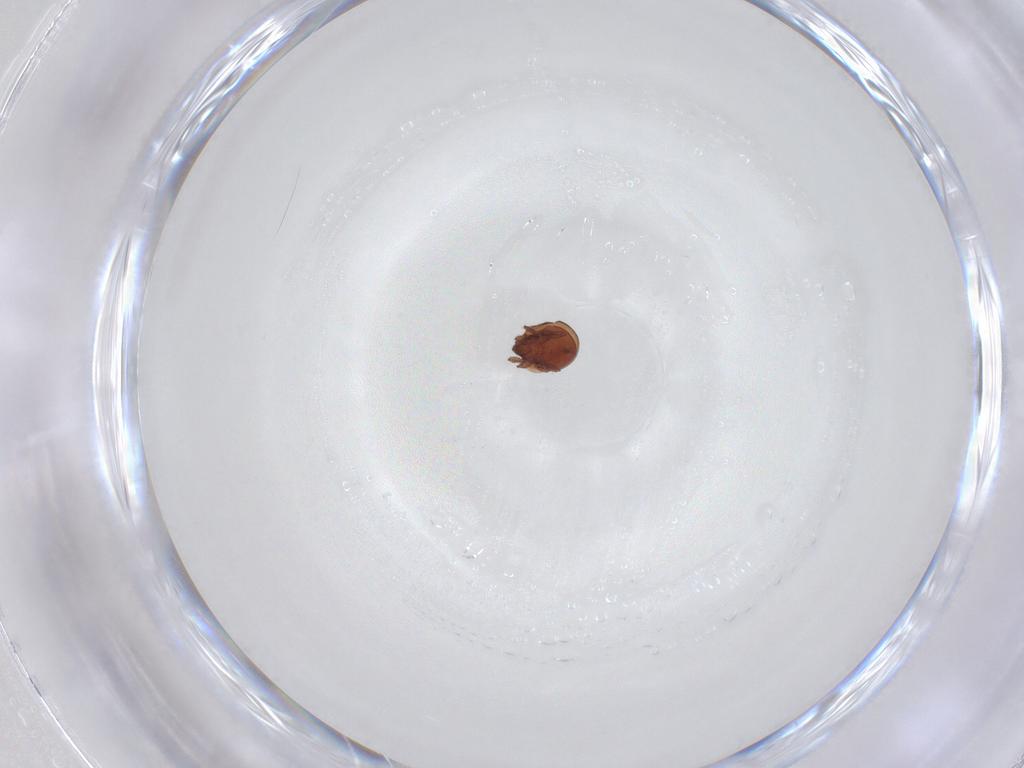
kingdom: Animalia
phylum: Arthropoda
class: Arachnida
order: Sarcoptiformes
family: Scheloribatidae
